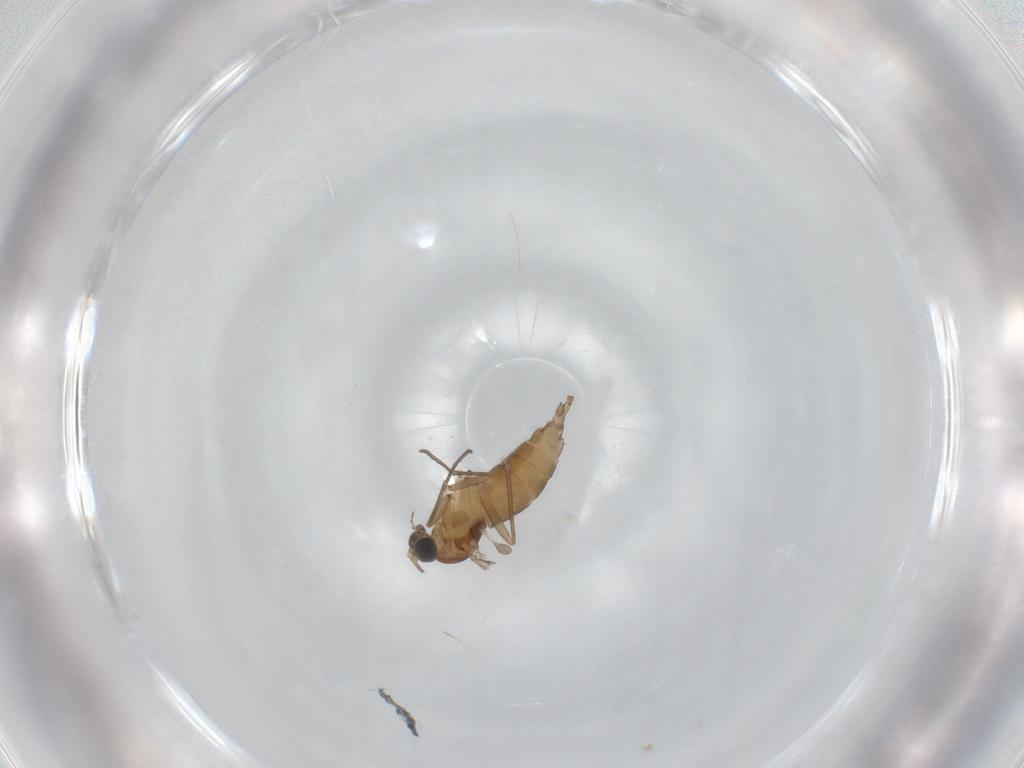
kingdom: Animalia
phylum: Arthropoda
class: Insecta
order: Diptera
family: Sciaridae
